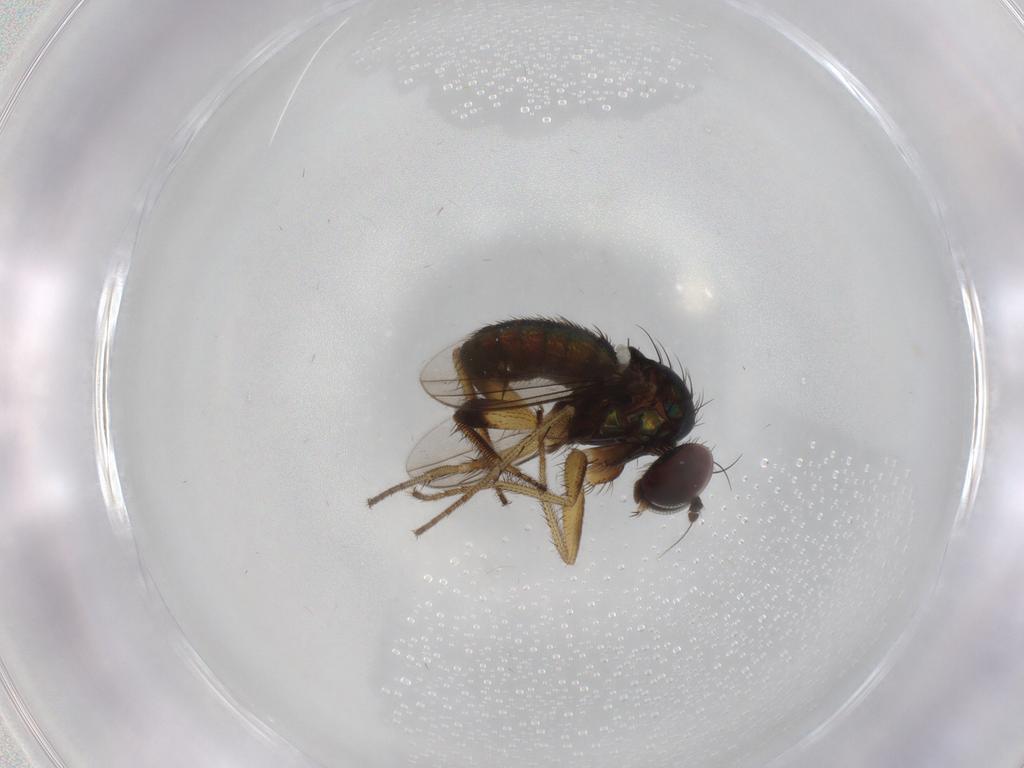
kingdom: Animalia
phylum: Arthropoda
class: Insecta
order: Diptera
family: Dolichopodidae
